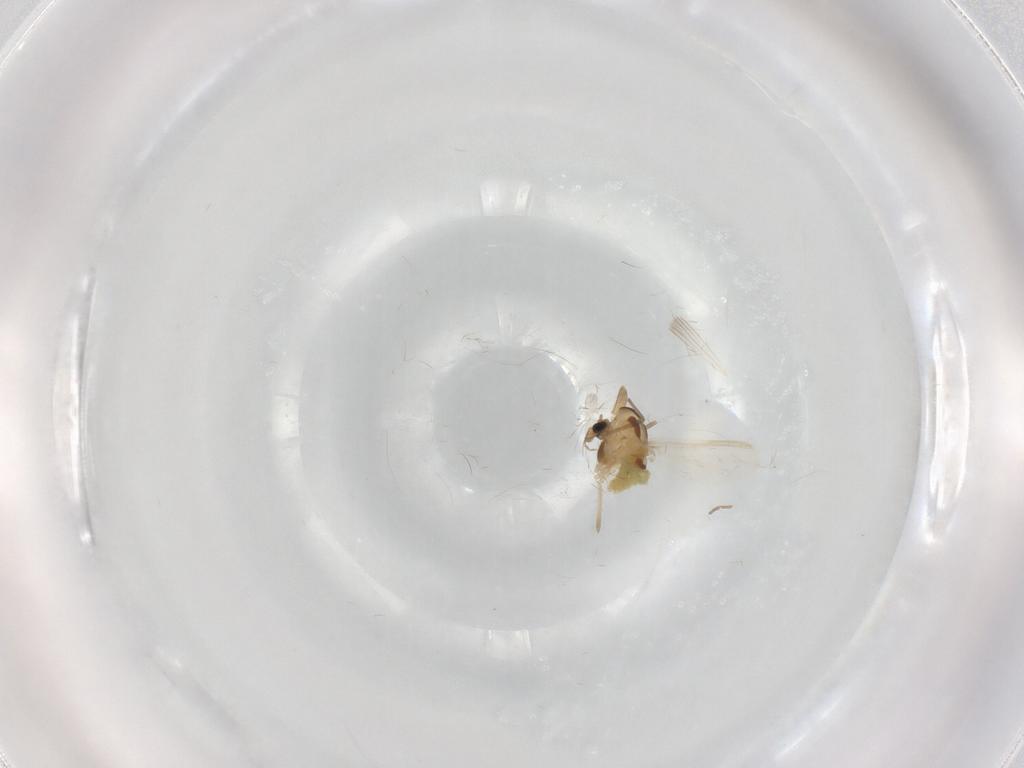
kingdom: Animalia
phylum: Arthropoda
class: Insecta
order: Diptera
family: Chironomidae
